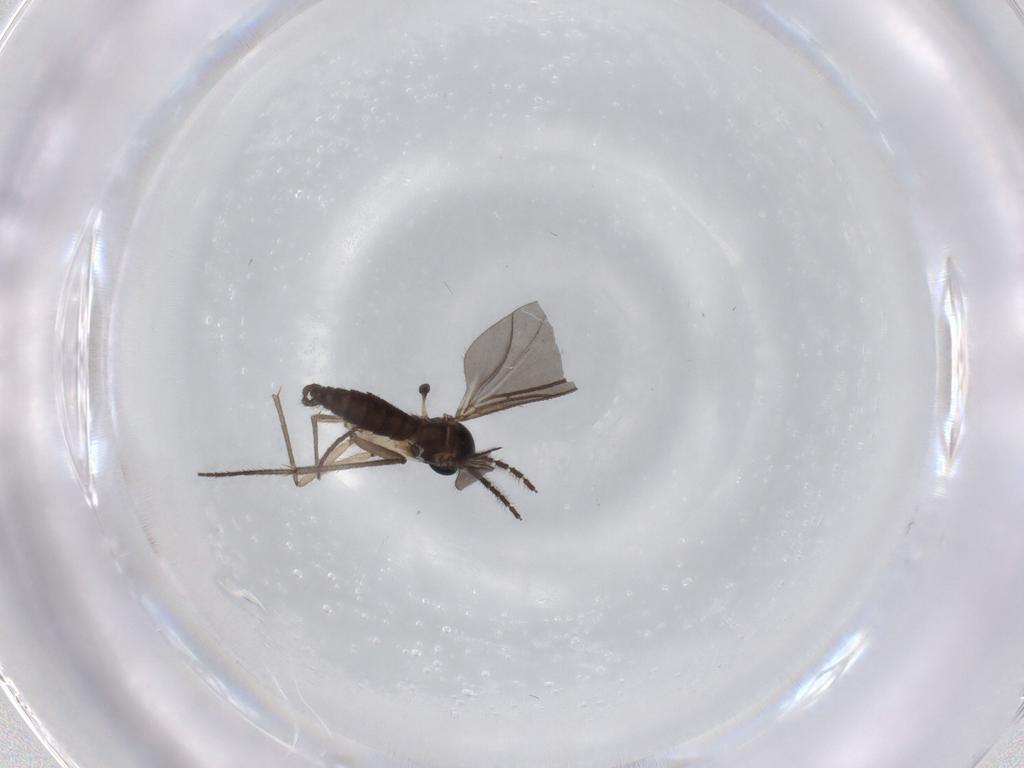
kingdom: Animalia
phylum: Arthropoda
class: Insecta
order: Diptera
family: Sciaridae
